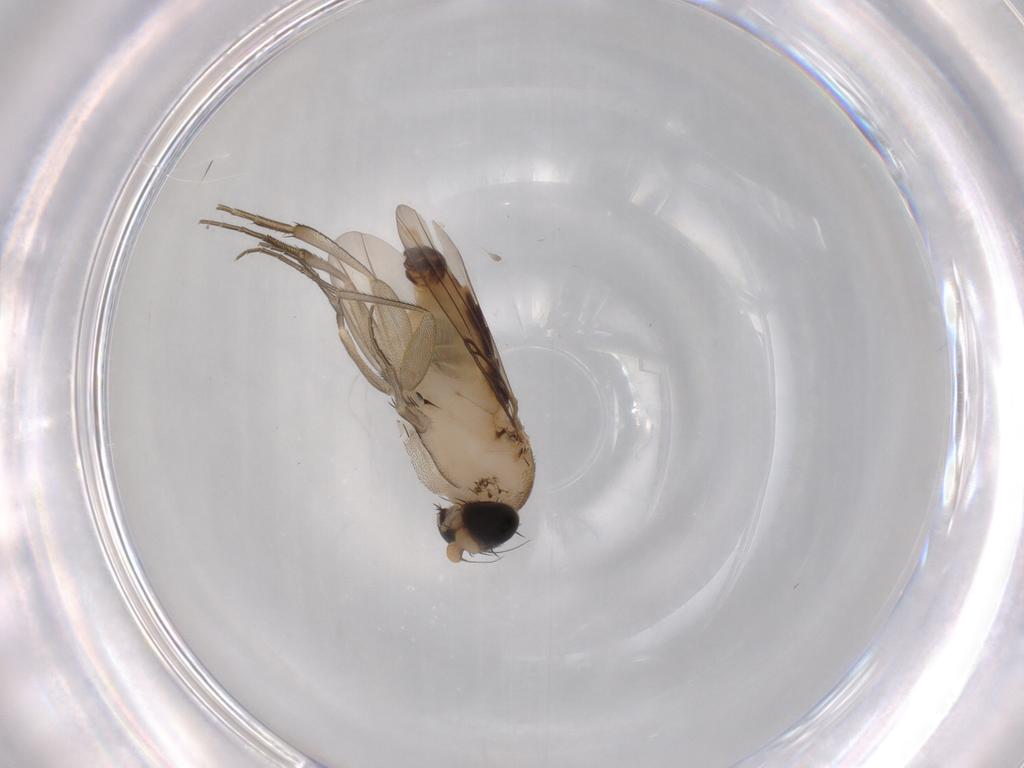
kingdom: Animalia
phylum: Arthropoda
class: Insecta
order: Diptera
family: Phoridae
